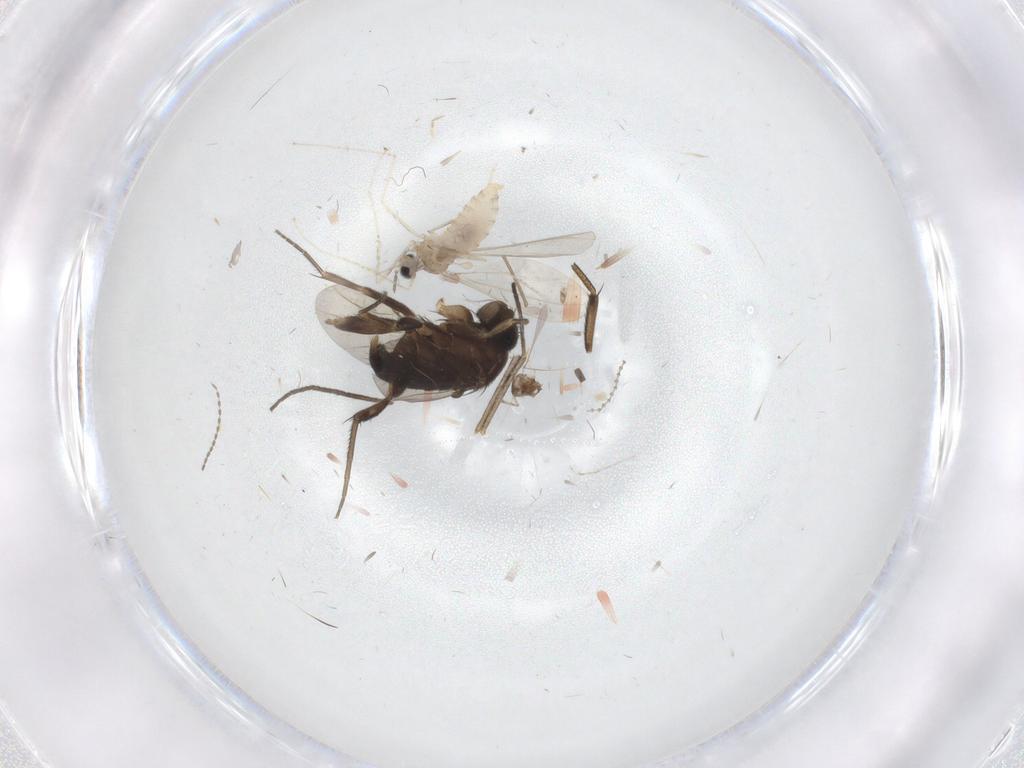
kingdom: Animalia
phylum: Arthropoda
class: Insecta
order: Diptera
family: Phoridae
